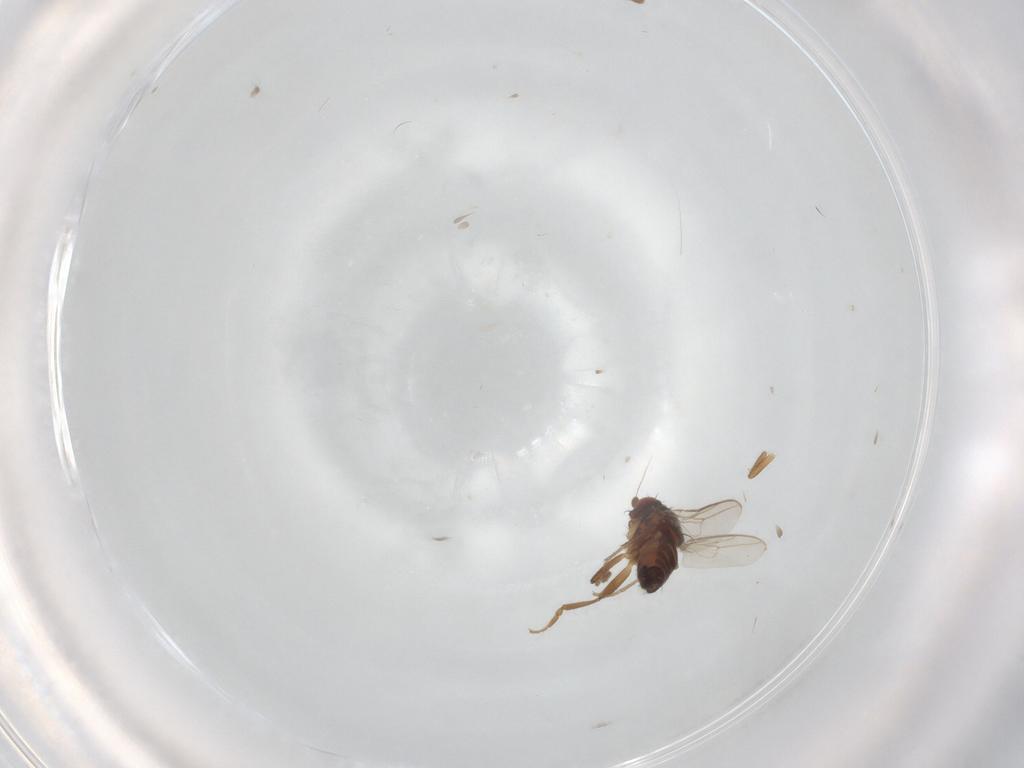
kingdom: Animalia
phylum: Arthropoda
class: Insecta
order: Diptera
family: Sphaeroceridae
